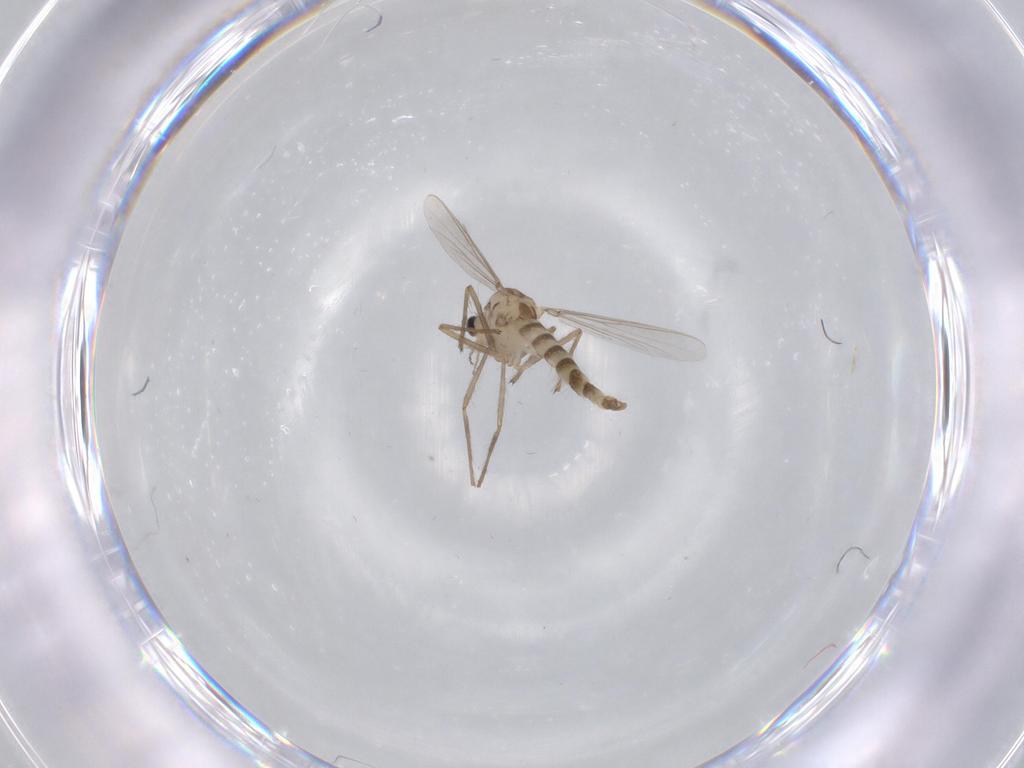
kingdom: Animalia
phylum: Arthropoda
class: Insecta
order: Diptera
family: Chironomidae
